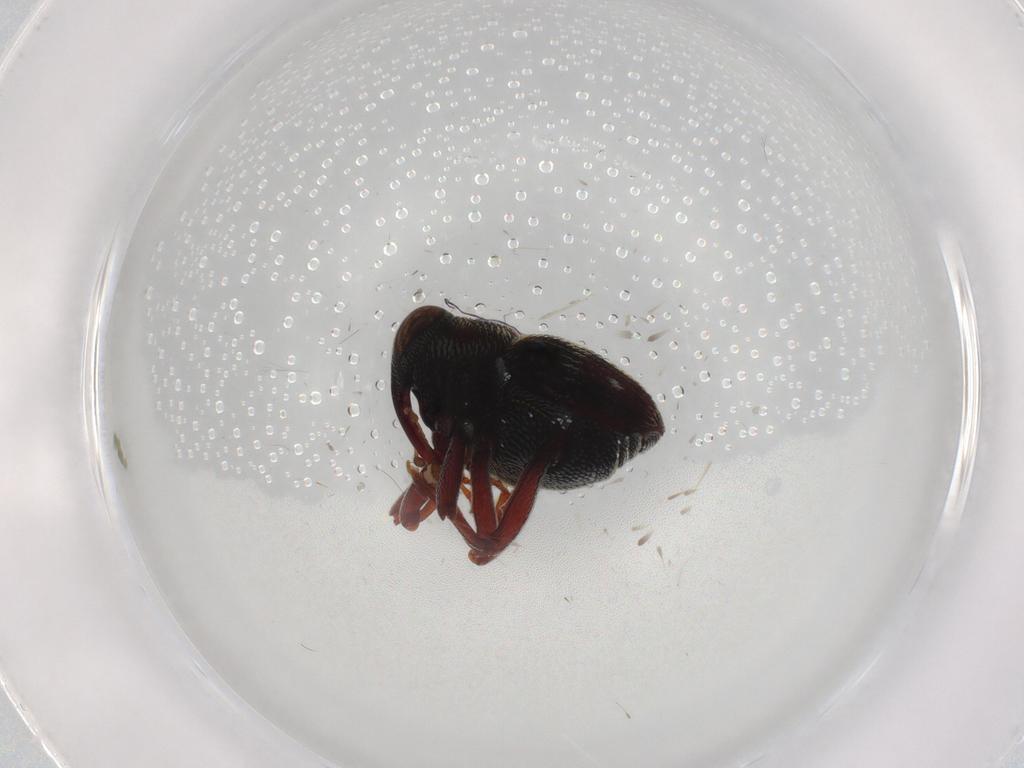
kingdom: Animalia
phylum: Arthropoda
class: Insecta
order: Coleoptera
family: Curculionidae
